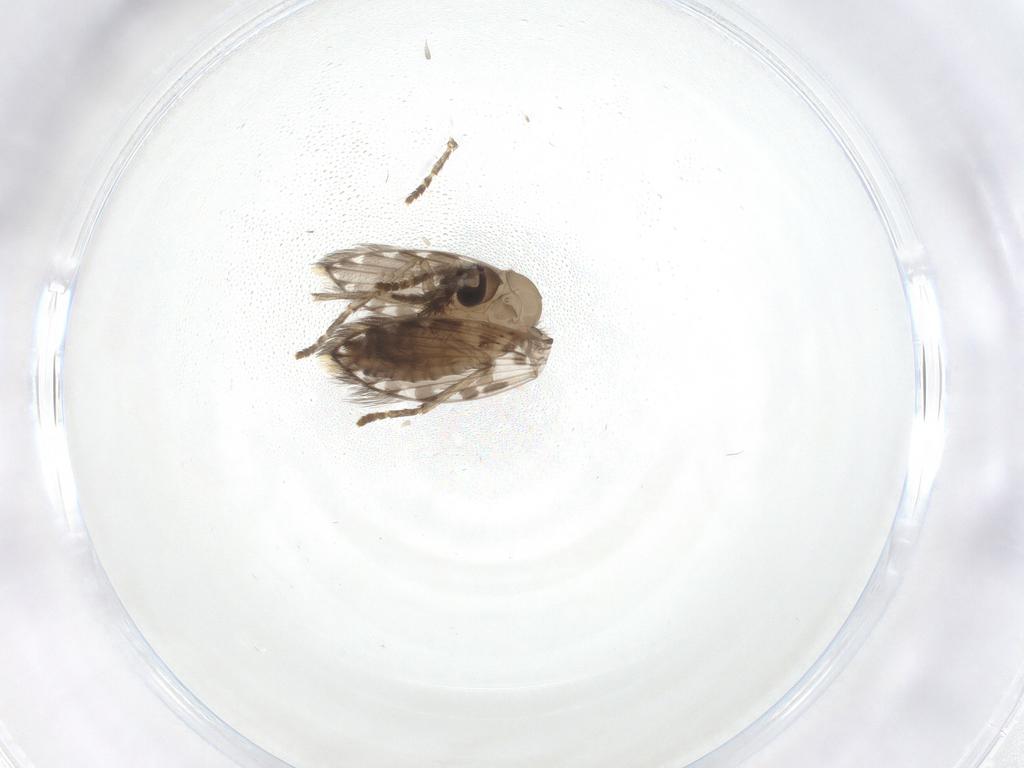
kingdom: Animalia
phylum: Arthropoda
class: Insecta
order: Diptera
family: Psychodidae
